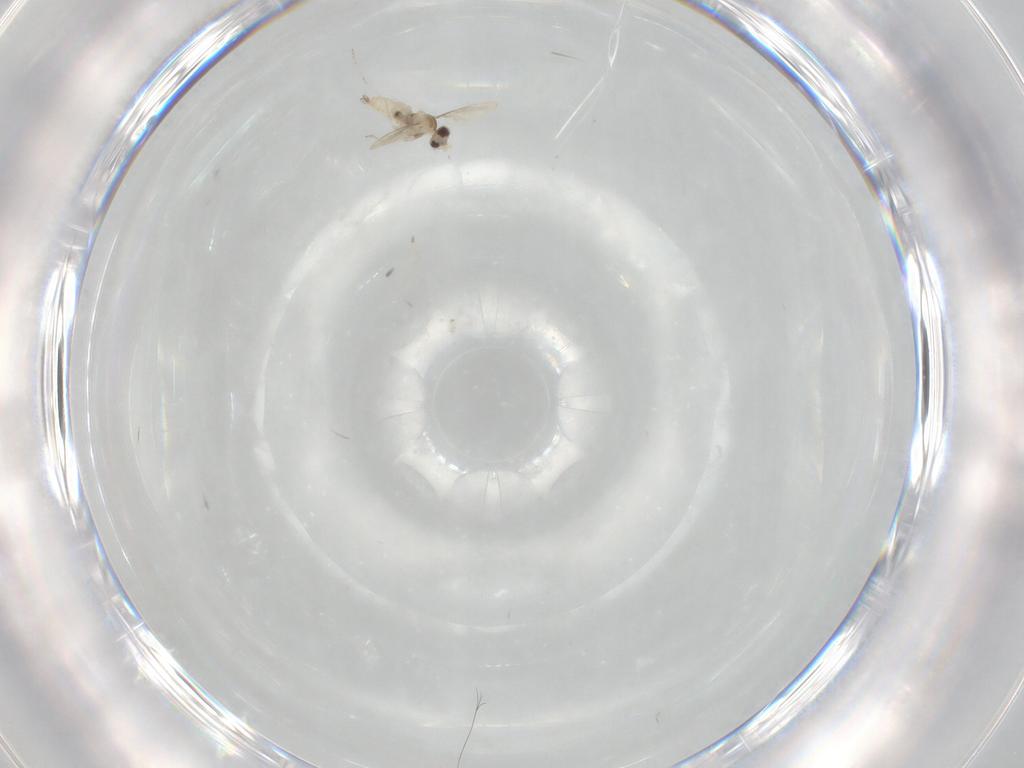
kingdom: Animalia
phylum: Arthropoda
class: Insecta
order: Diptera
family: Cecidomyiidae
